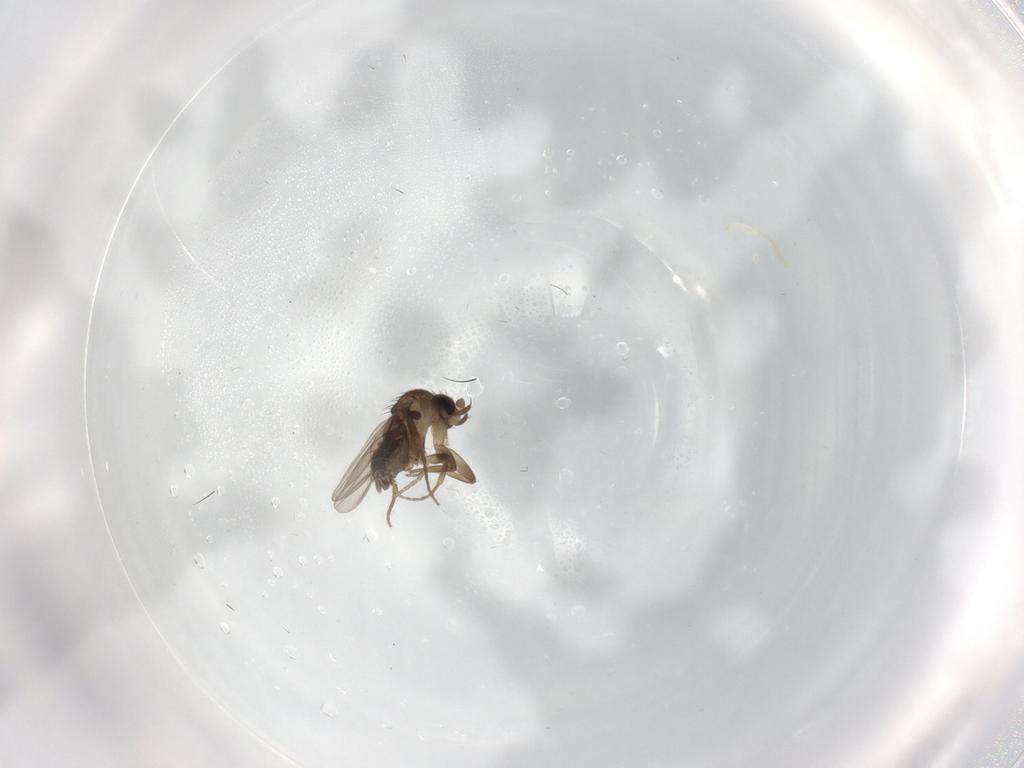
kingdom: Animalia
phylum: Arthropoda
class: Insecta
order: Diptera
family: Phoridae
